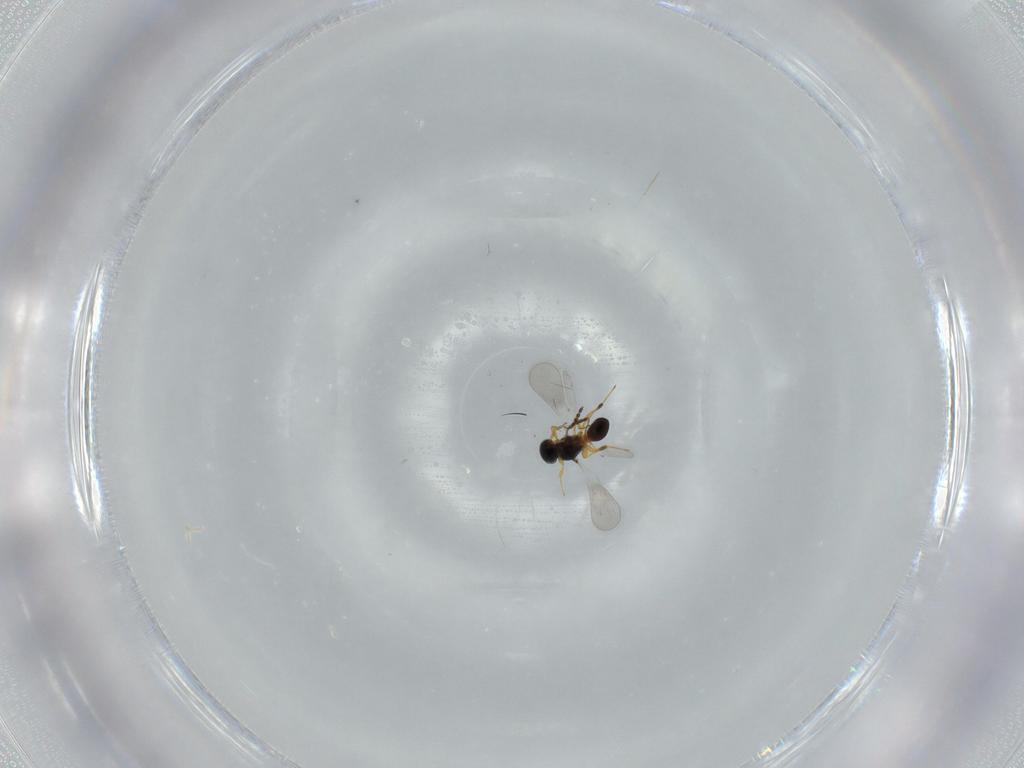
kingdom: Animalia
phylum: Arthropoda
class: Insecta
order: Hymenoptera
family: Platygastridae
